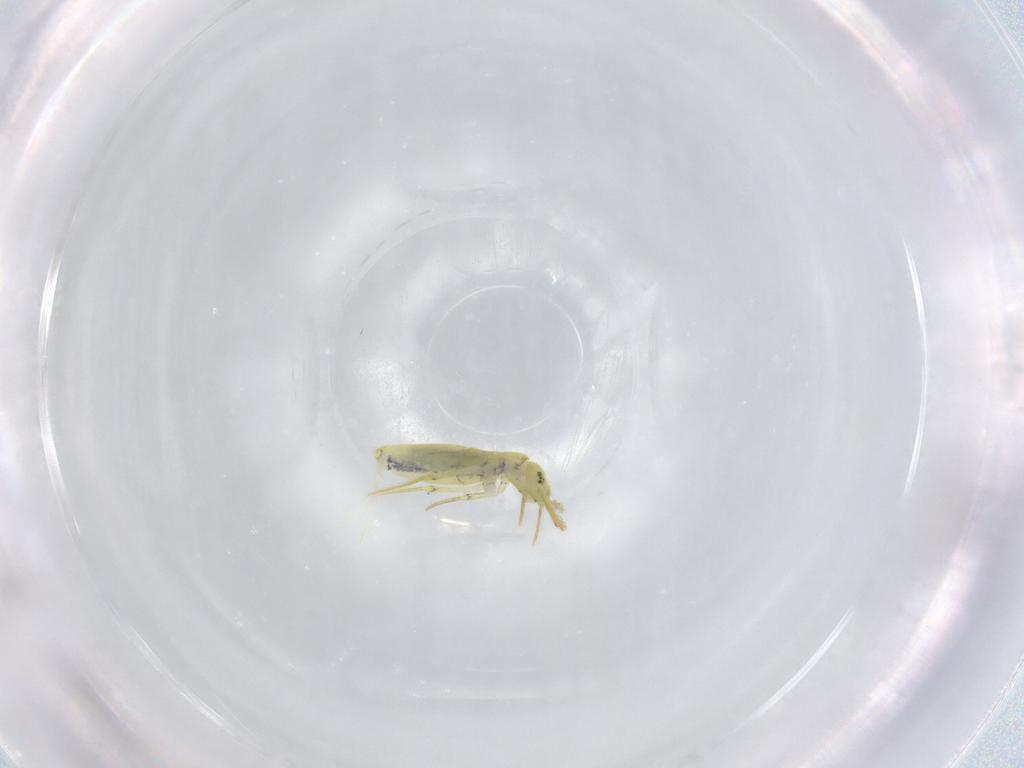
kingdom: Animalia
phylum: Arthropoda
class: Collembola
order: Entomobryomorpha
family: Entomobryidae
